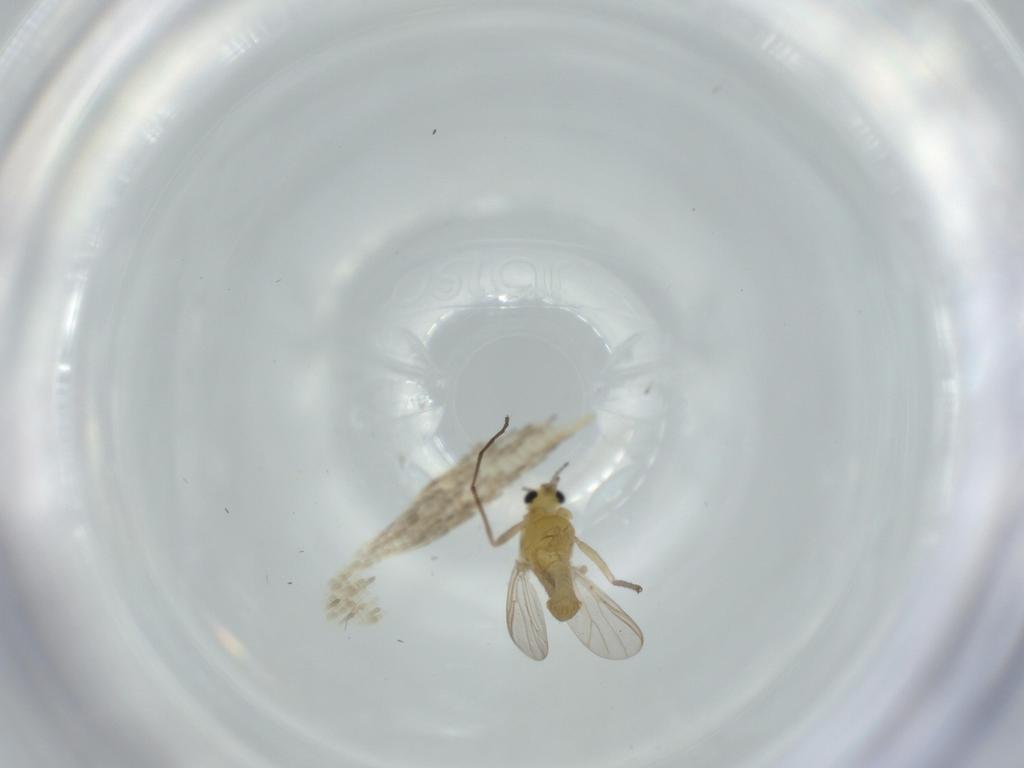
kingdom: Animalia
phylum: Arthropoda
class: Insecta
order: Diptera
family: Chironomidae
